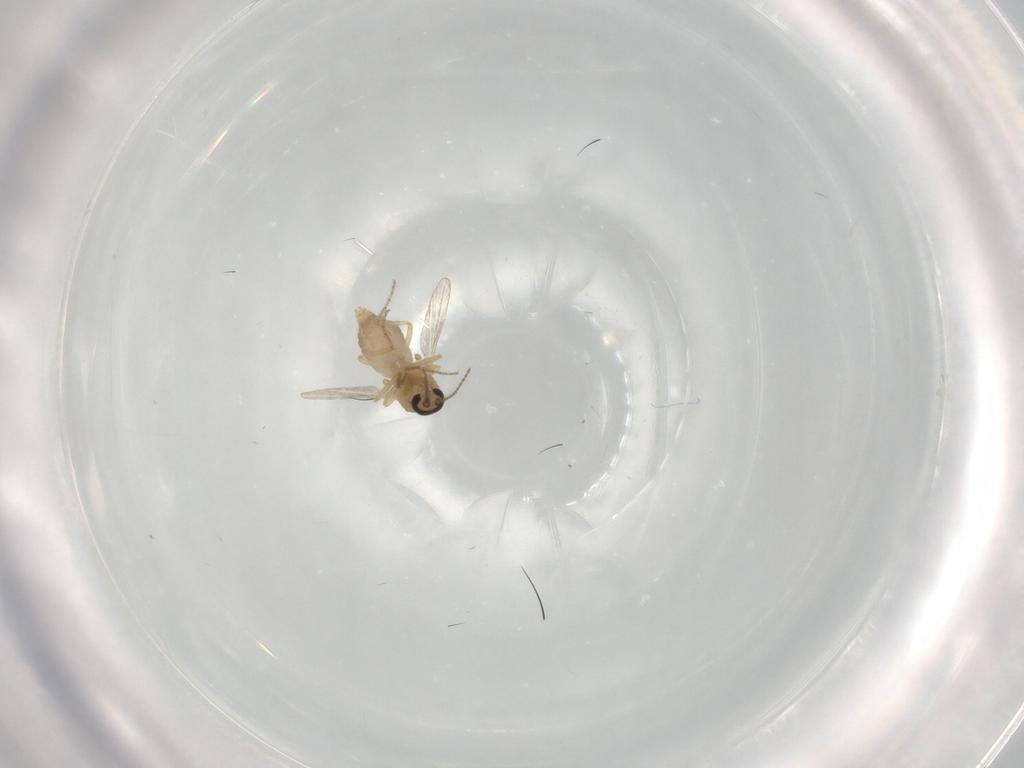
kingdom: Animalia
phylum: Arthropoda
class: Insecta
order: Diptera
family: Ceratopogonidae
